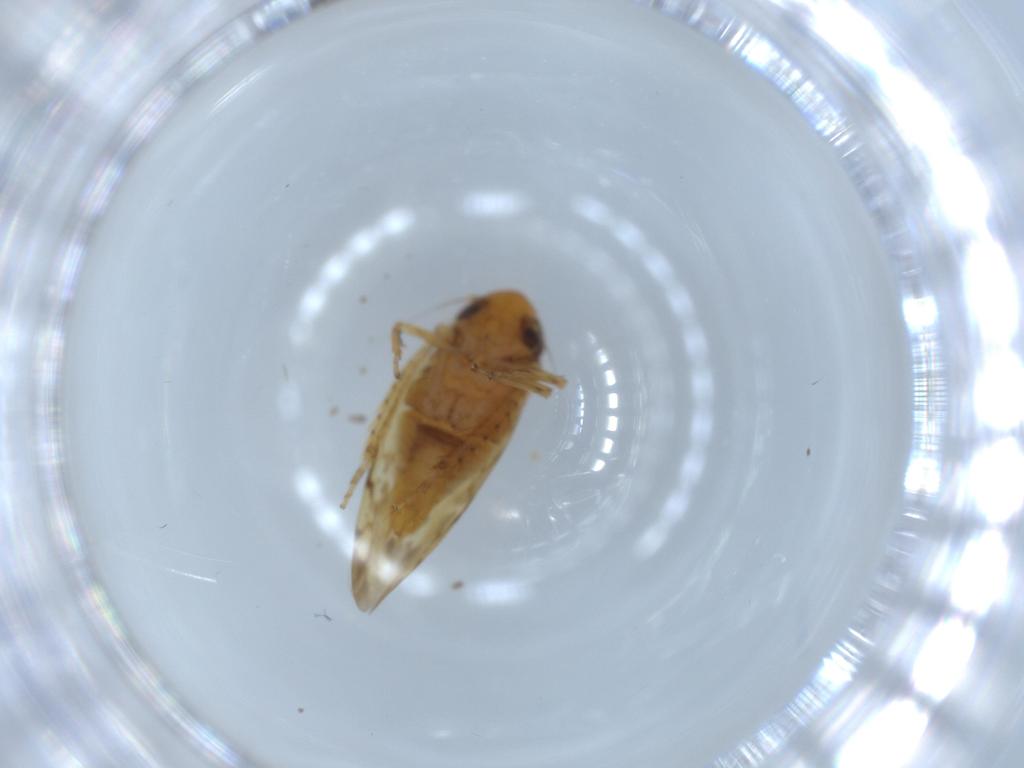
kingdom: Animalia
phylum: Arthropoda
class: Insecta
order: Hemiptera
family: Cicadellidae
